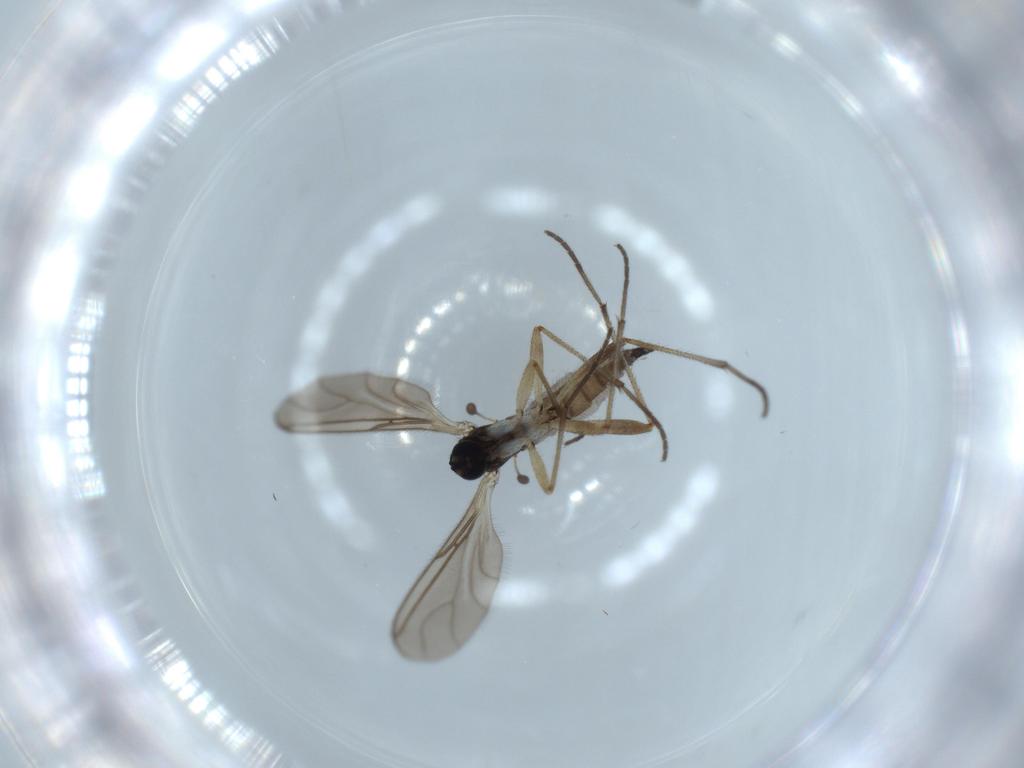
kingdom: Animalia
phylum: Arthropoda
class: Insecta
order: Diptera
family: Sciaridae
